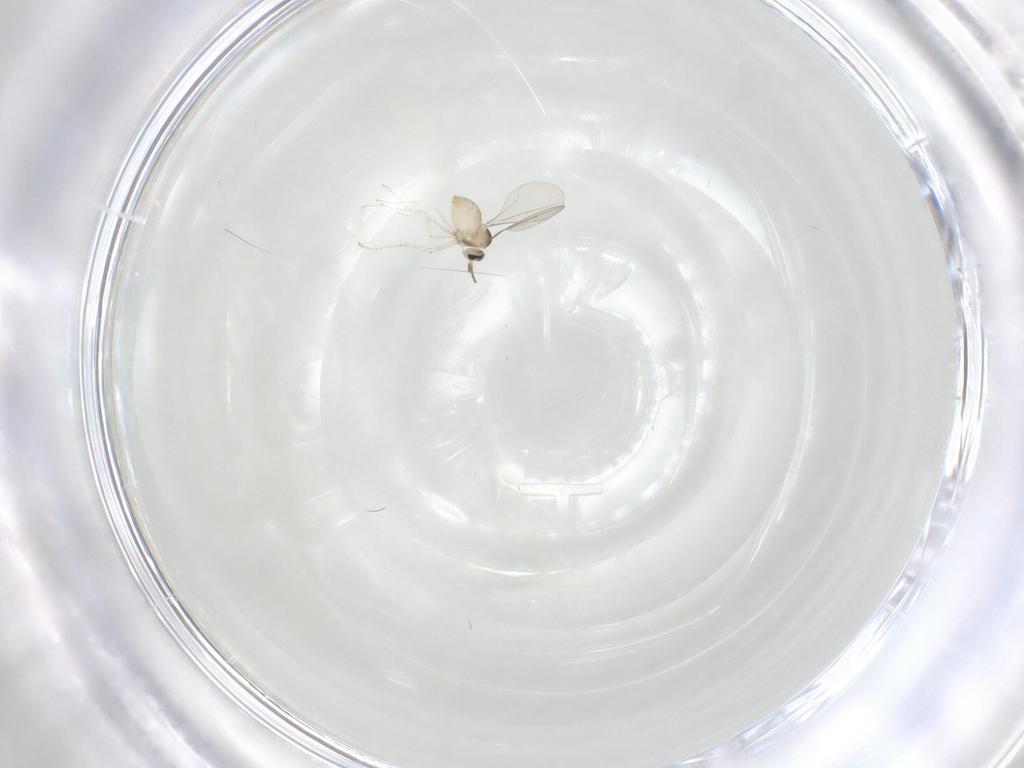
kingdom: Animalia
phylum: Arthropoda
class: Insecta
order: Diptera
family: Cecidomyiidae
